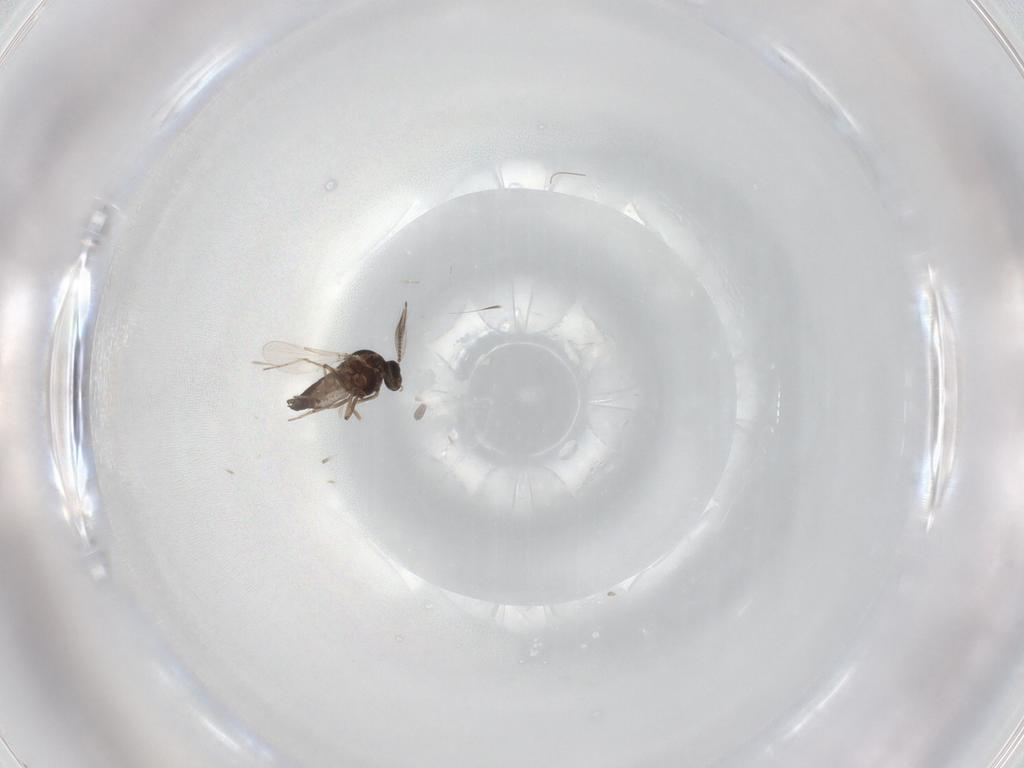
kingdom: Animalia
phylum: Arthropoda
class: Insecta
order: Diptera
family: Ceratopogonidae
